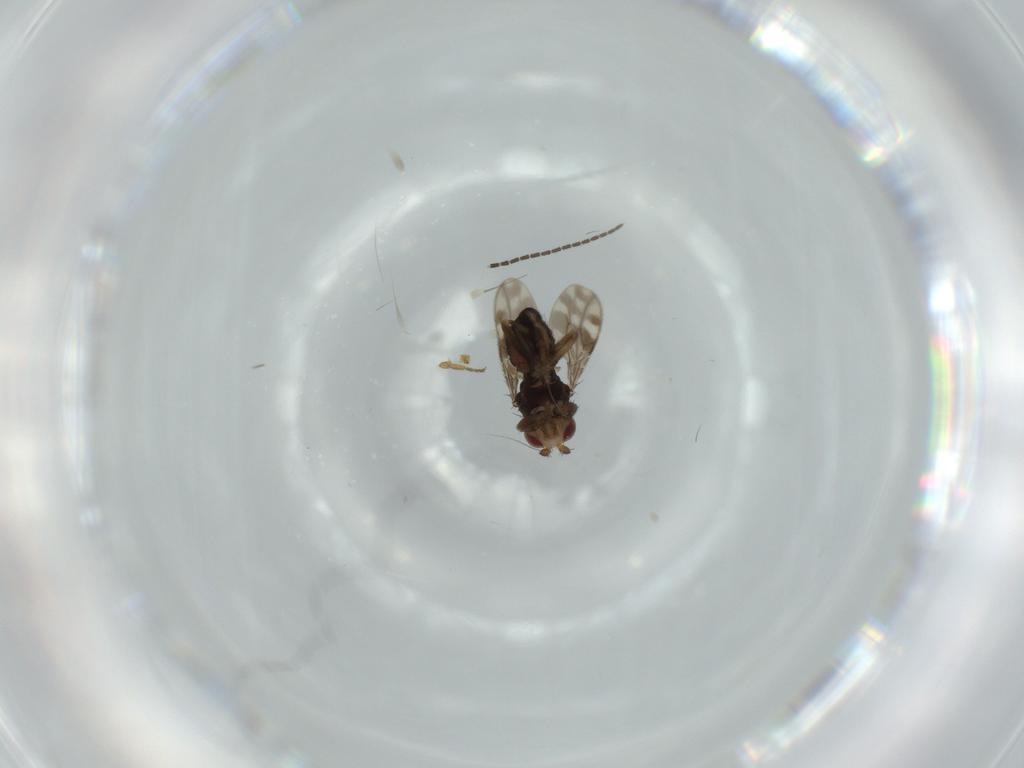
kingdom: Animalia
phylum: Arthropoda
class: Insecta
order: Diptera
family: Sphaeroceridae
